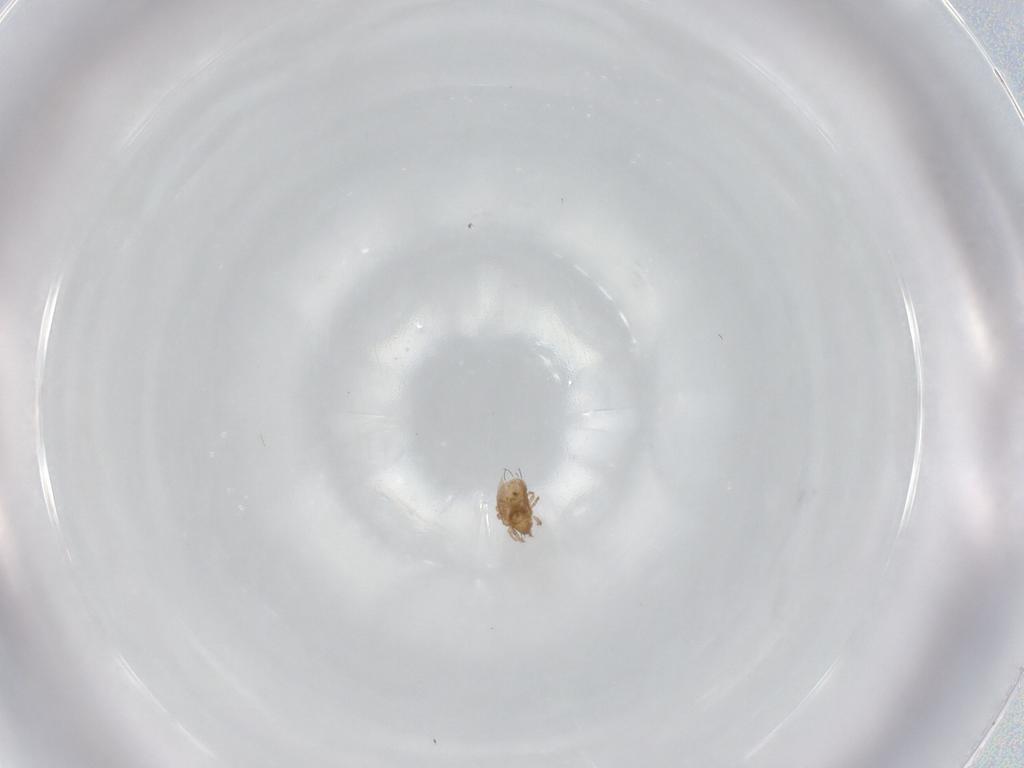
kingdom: Animalia
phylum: Arthropoda
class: Arachnida
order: Sarcoptiformes
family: Oribatulidae
